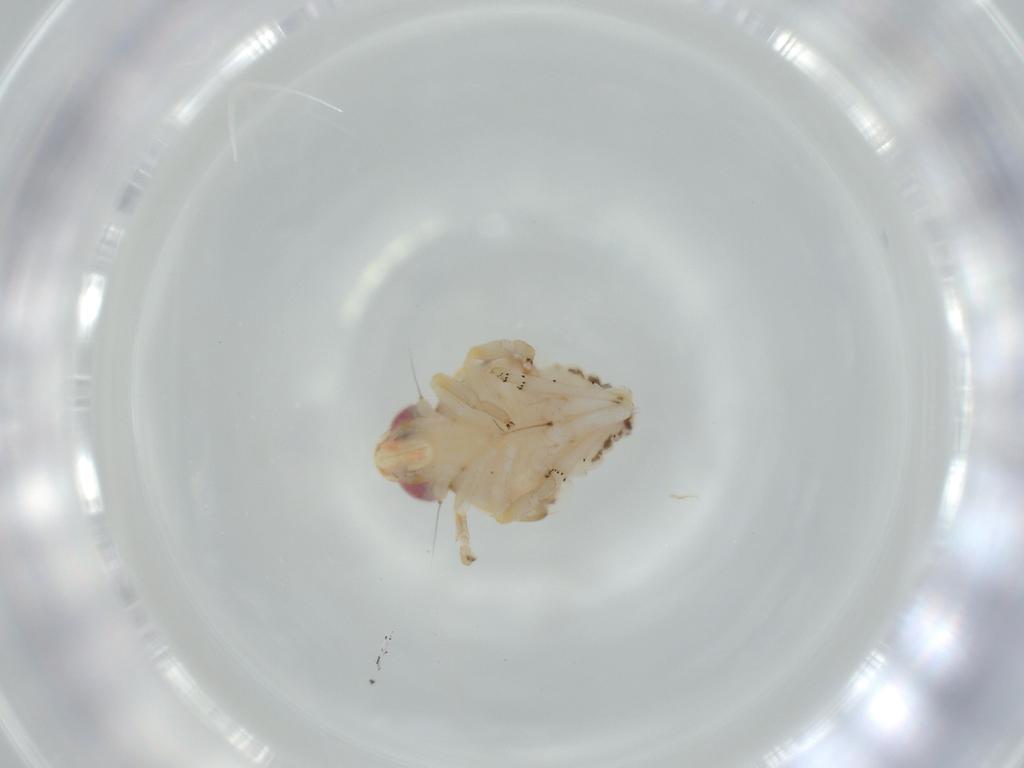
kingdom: Animalia
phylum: Arthropoda
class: Insecta
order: Hemiptera
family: Nogodinidae
